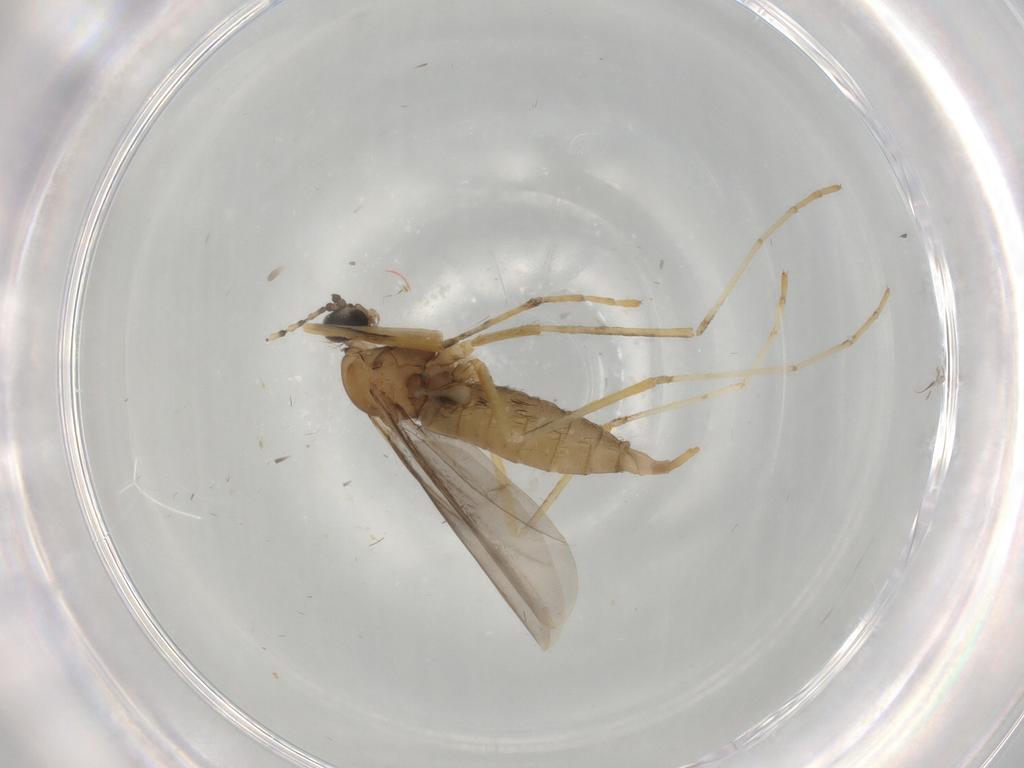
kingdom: Animalia
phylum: Arthropoda
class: Insecta
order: Diptera
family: Cecidomyiidae
